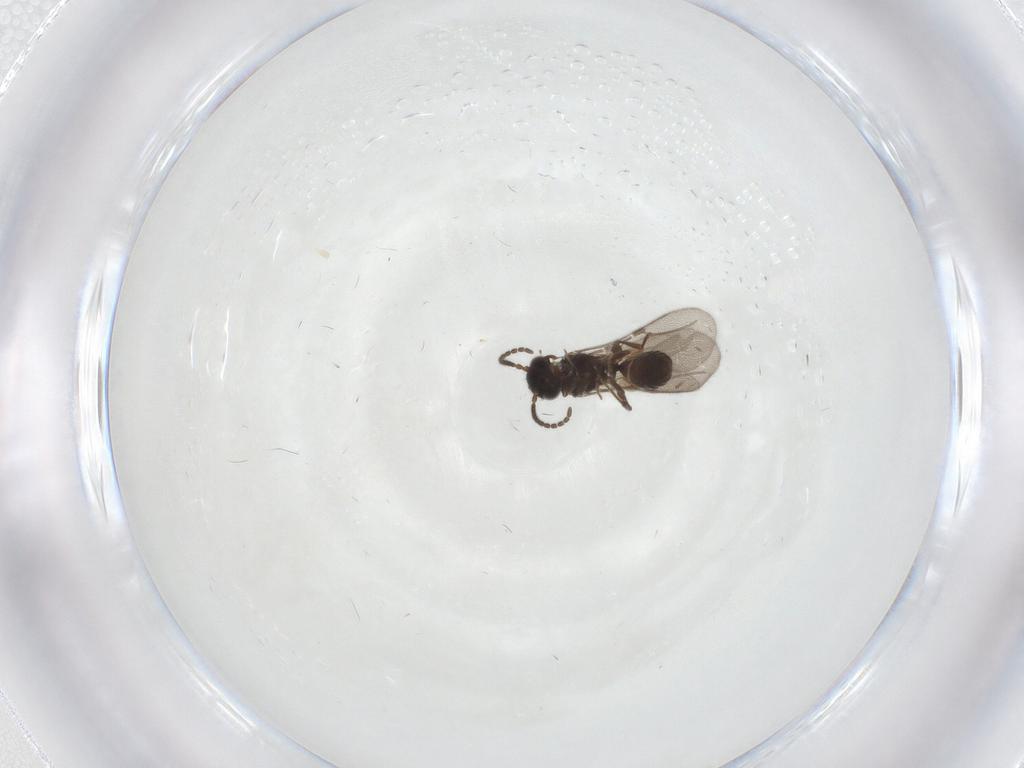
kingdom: Animalia
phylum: Arthropoda
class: Insecta
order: Hymenoptera
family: Bethylidae
